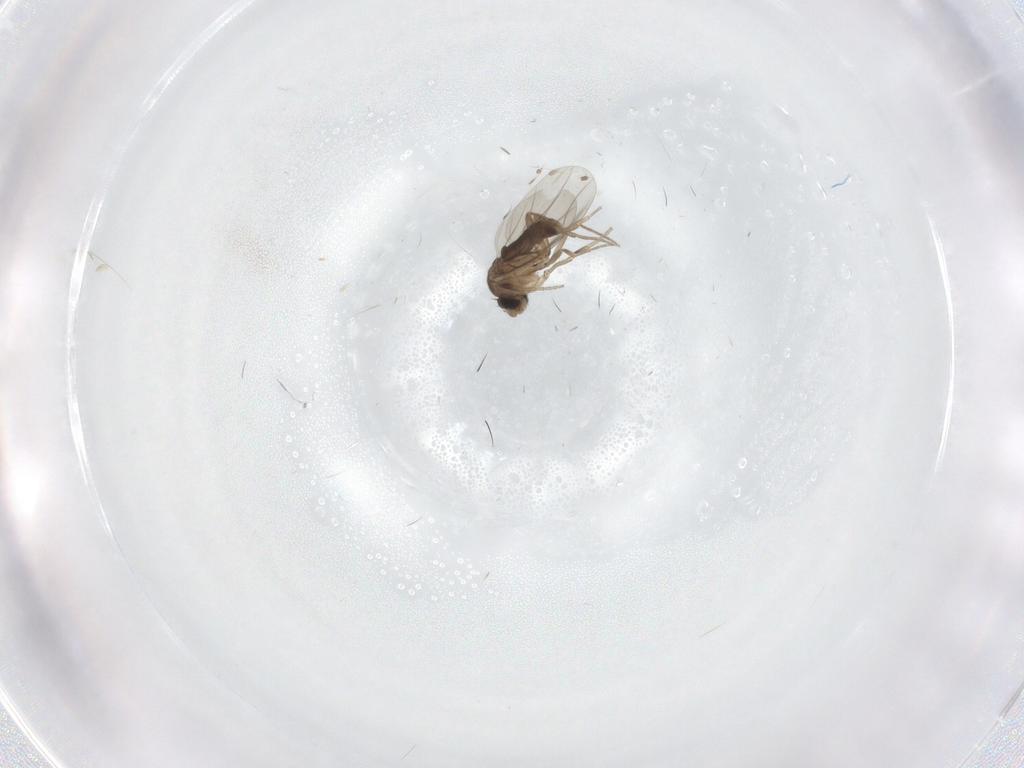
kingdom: Animalia
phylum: Arthropoda
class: Insecta
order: Diptera
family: Phoridae
